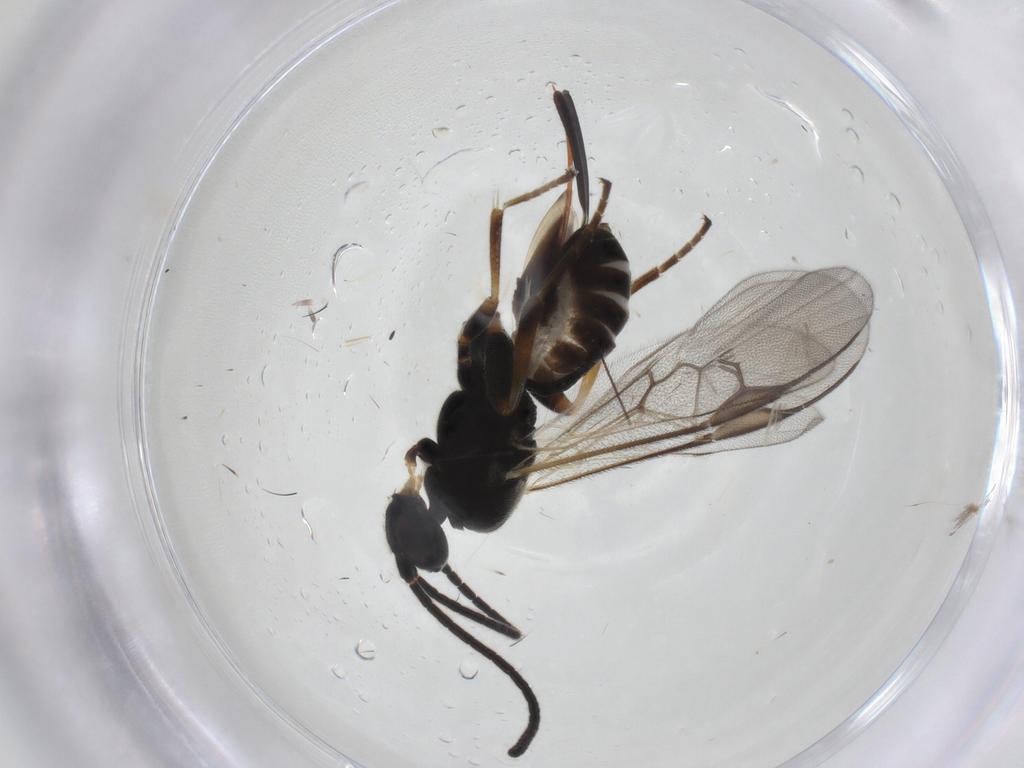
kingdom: Animalia
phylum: Arthropoda
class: Insecta
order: Hymenoptera
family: Braconidae
